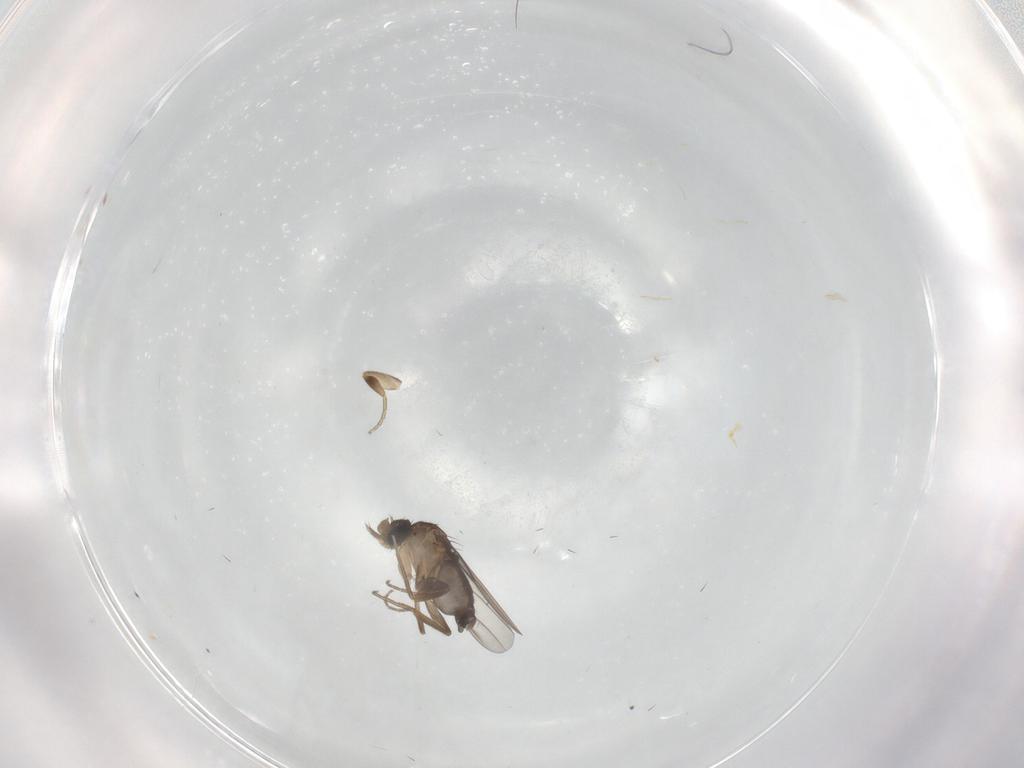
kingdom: Animalia
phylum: Arthropoda
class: Insecta
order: Diptera
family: Phoridae
